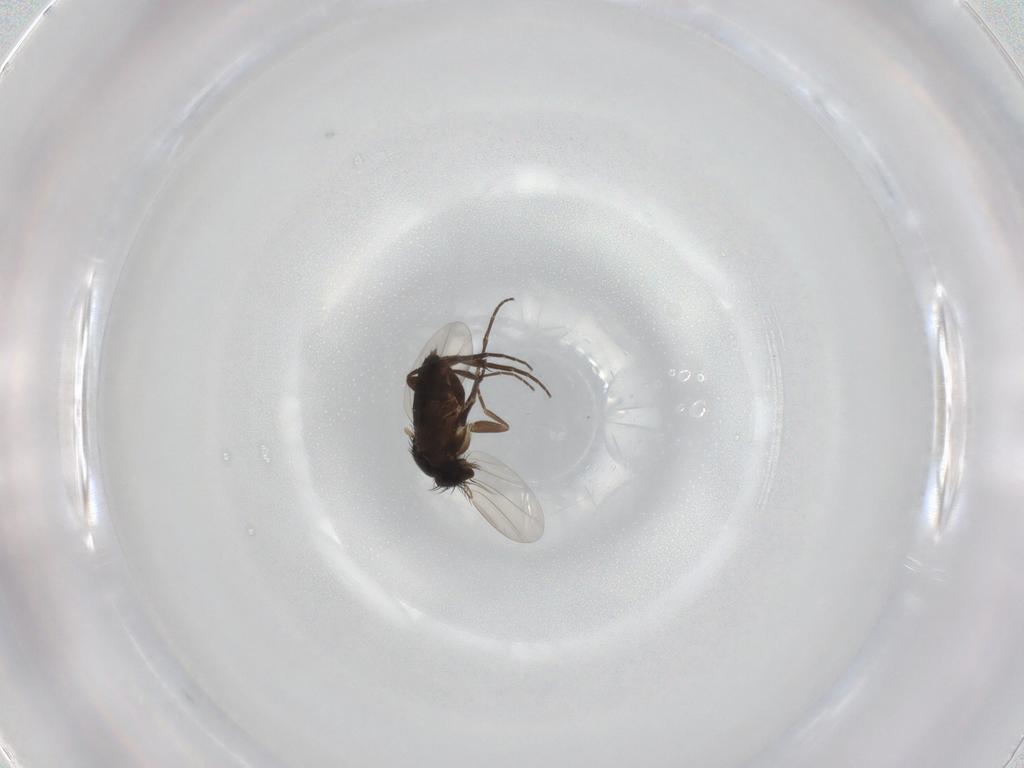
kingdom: Animalia
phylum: Arthropoda
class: Insecta
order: Diptera
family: Phoridae
